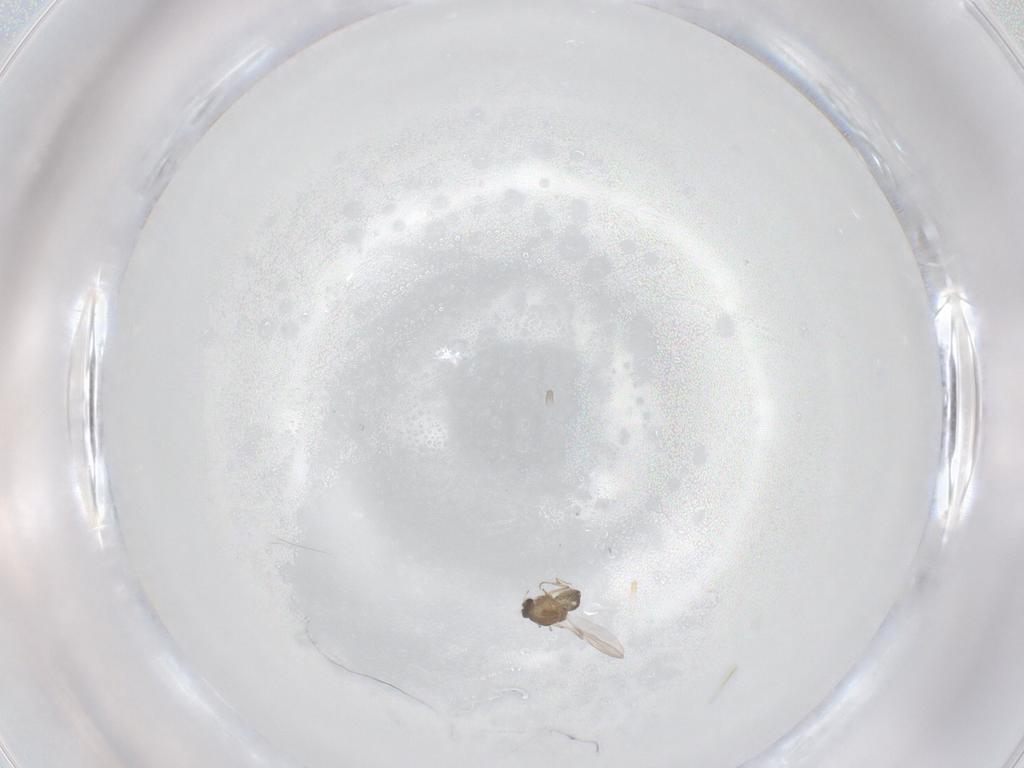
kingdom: Animalia
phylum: Arthropoda
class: Insecta
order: Diptera
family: Chironomidae
